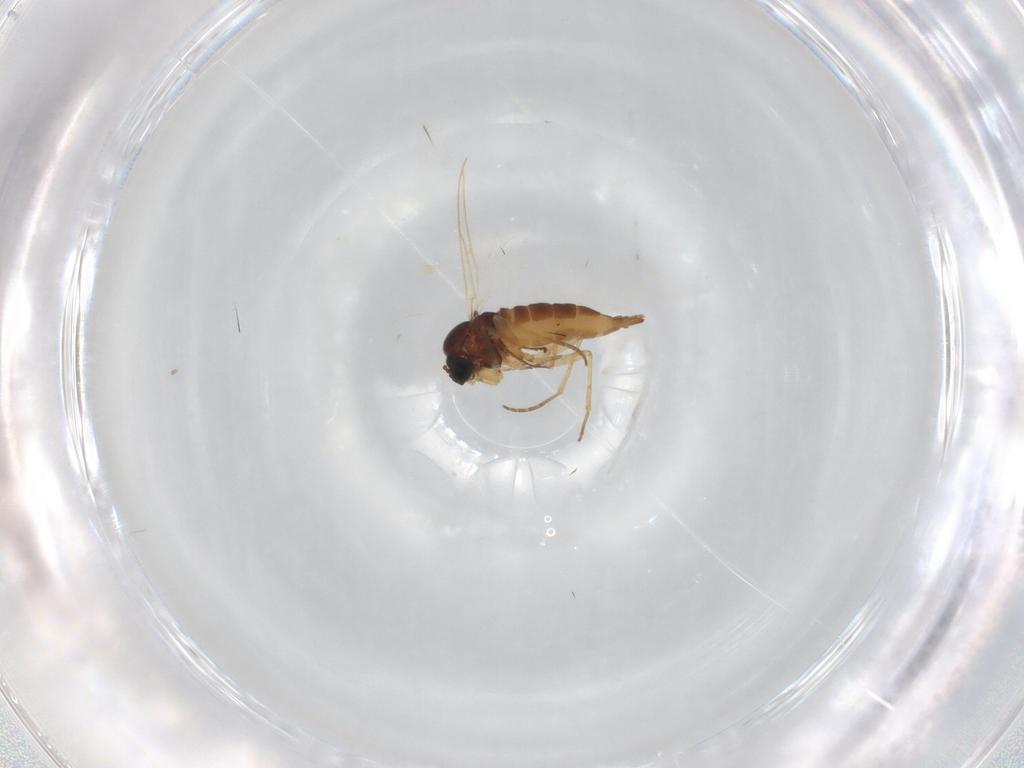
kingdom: Animalia
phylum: Arthropoda
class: Insecta
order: Diptera
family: Sciaridae
